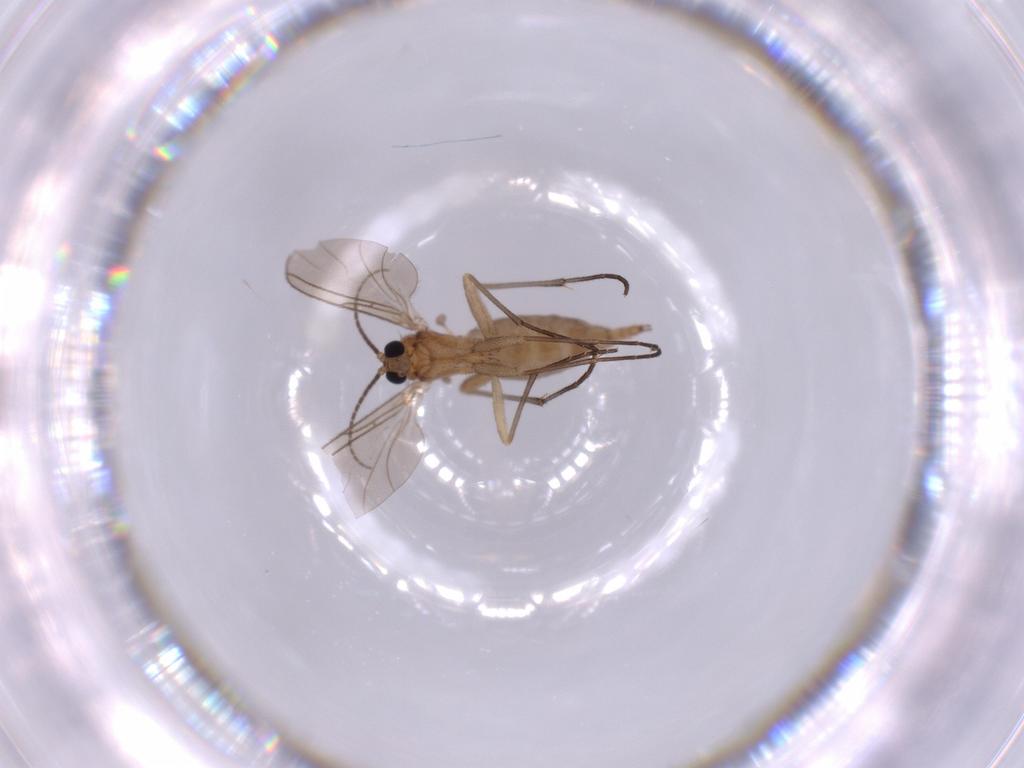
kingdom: Animalia
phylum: Arthropoda
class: Insecta
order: Diptera
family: Sciaridae
